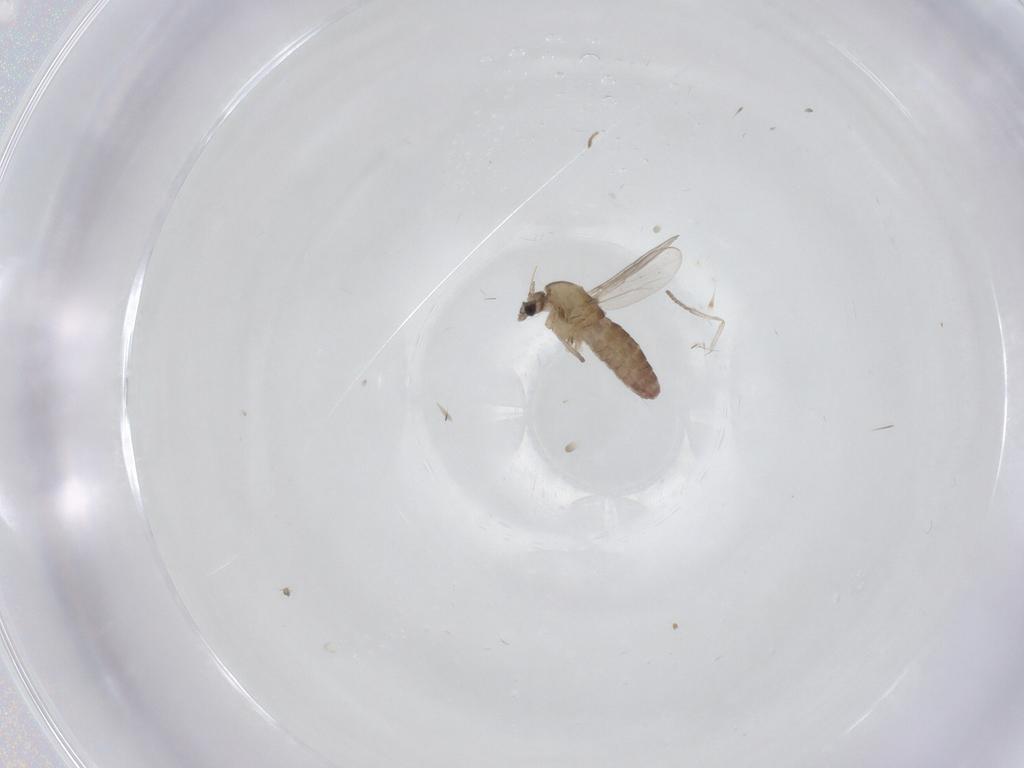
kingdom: Animalia
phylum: Arthropoda
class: Insecta
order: Diptera
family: Chironomidae
